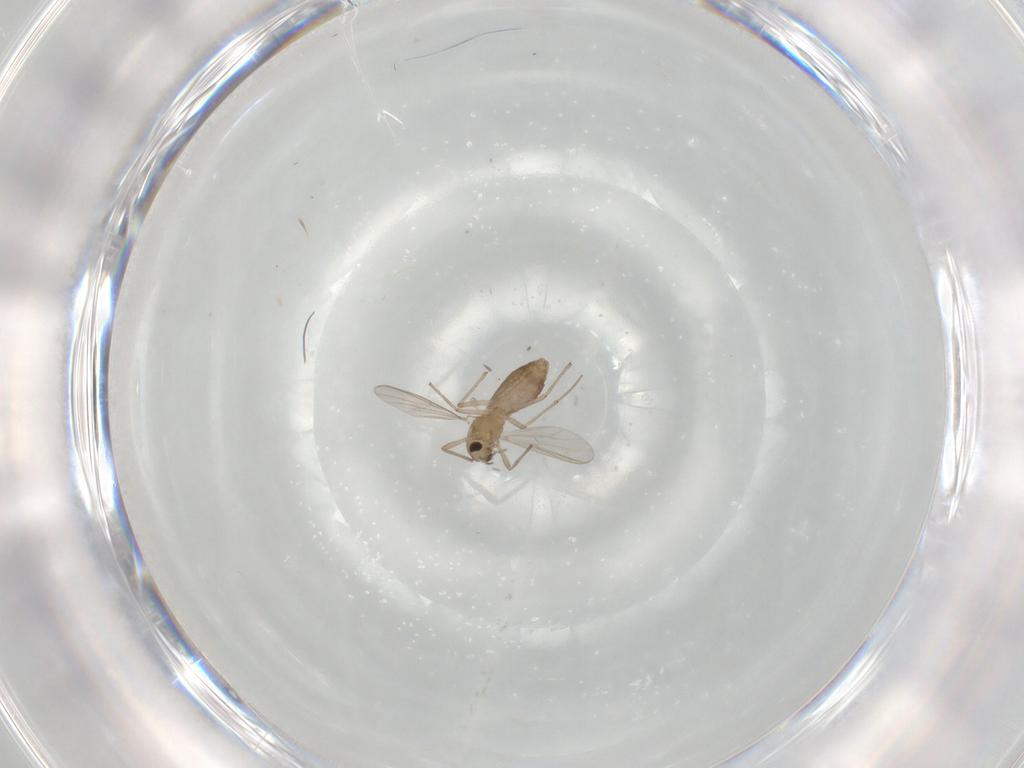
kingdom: Animalia
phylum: Arthropoda
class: Insecta
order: Diptera
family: Chironomidae
